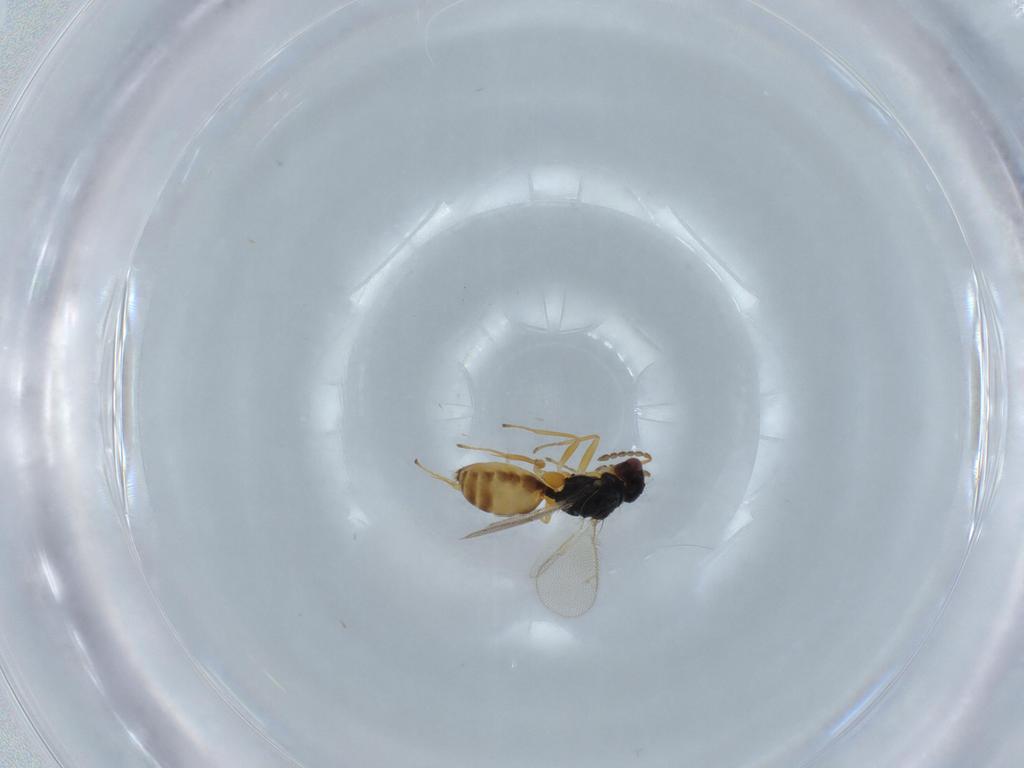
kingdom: Animalia
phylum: Arthropoda
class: Insecta
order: Hymenoptera
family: Eulophidae
